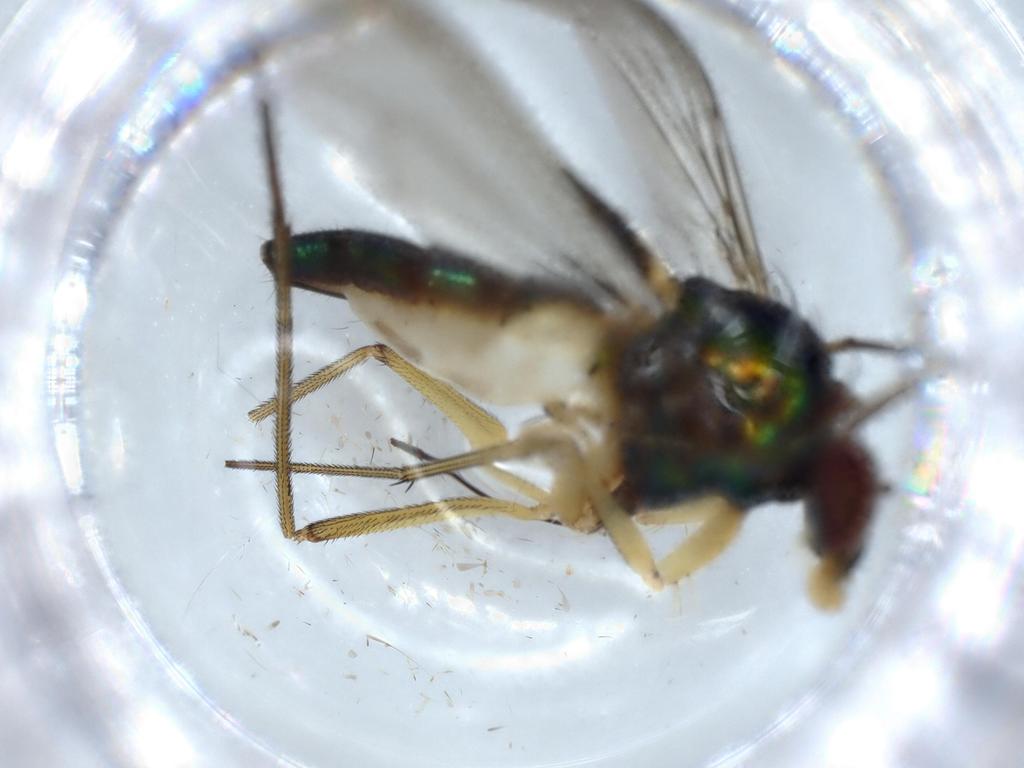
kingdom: Animalia
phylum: Arthropoda
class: Insecta
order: Diptera
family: Dolichopodidae
